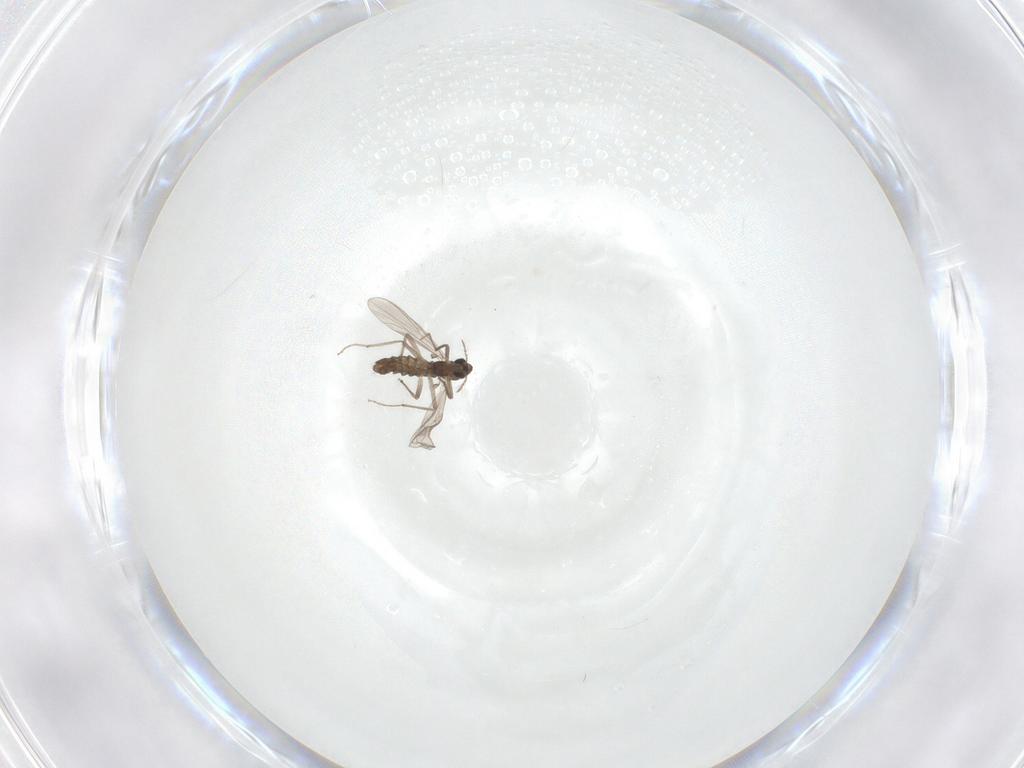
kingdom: Animalia
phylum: Arthropoda
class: Insecta
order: Diptera
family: Chironomidae
